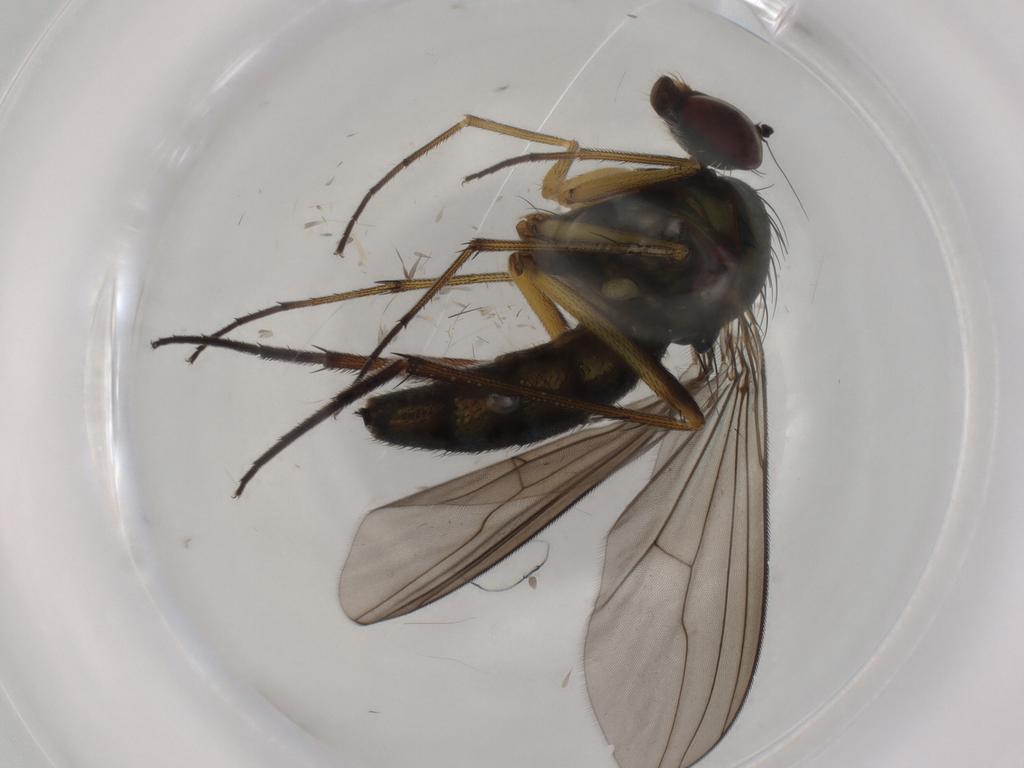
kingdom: Animalia
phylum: Arthropoda
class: Insecta
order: Diptera
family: Dolichopodidae
